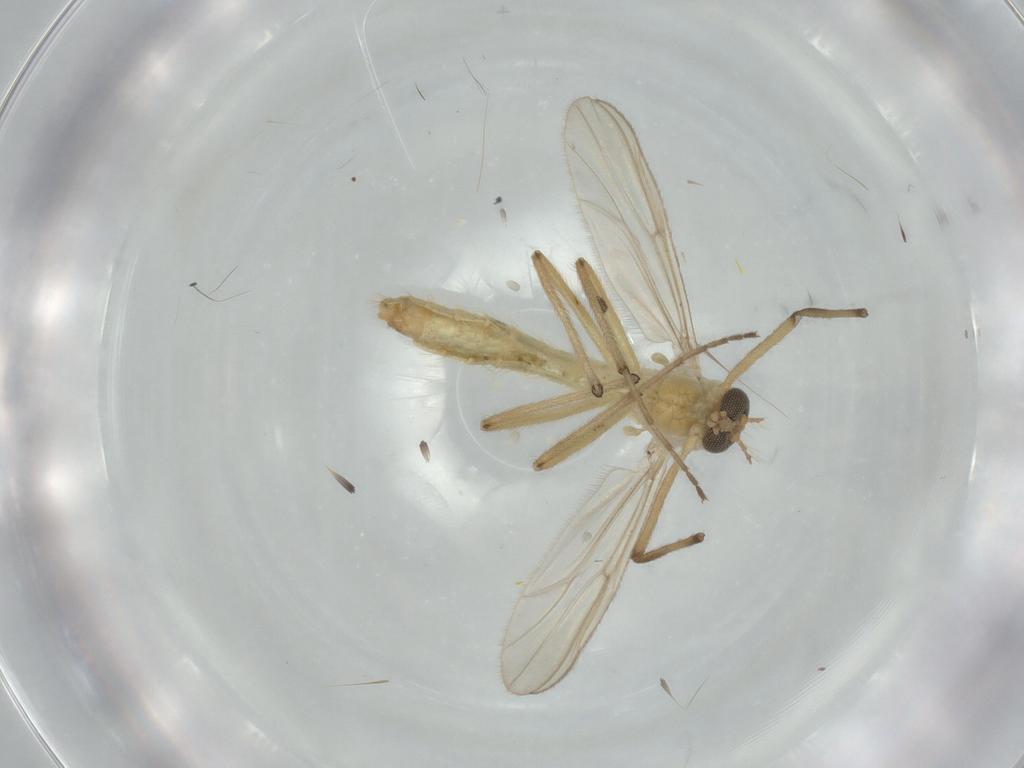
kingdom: Animalia
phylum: Arthropoda
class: Insecta
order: Diptera
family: Chironomidae
